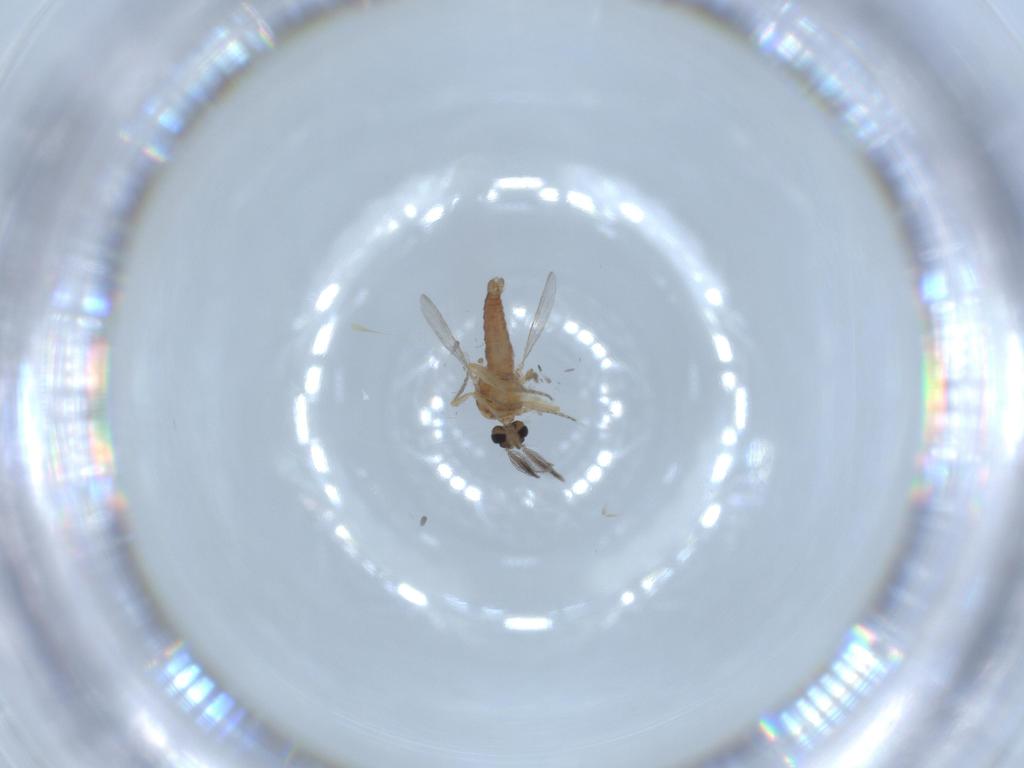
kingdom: Animalia
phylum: Arthropoda
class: Insecta
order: Diptera
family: Ceratopogonidae
